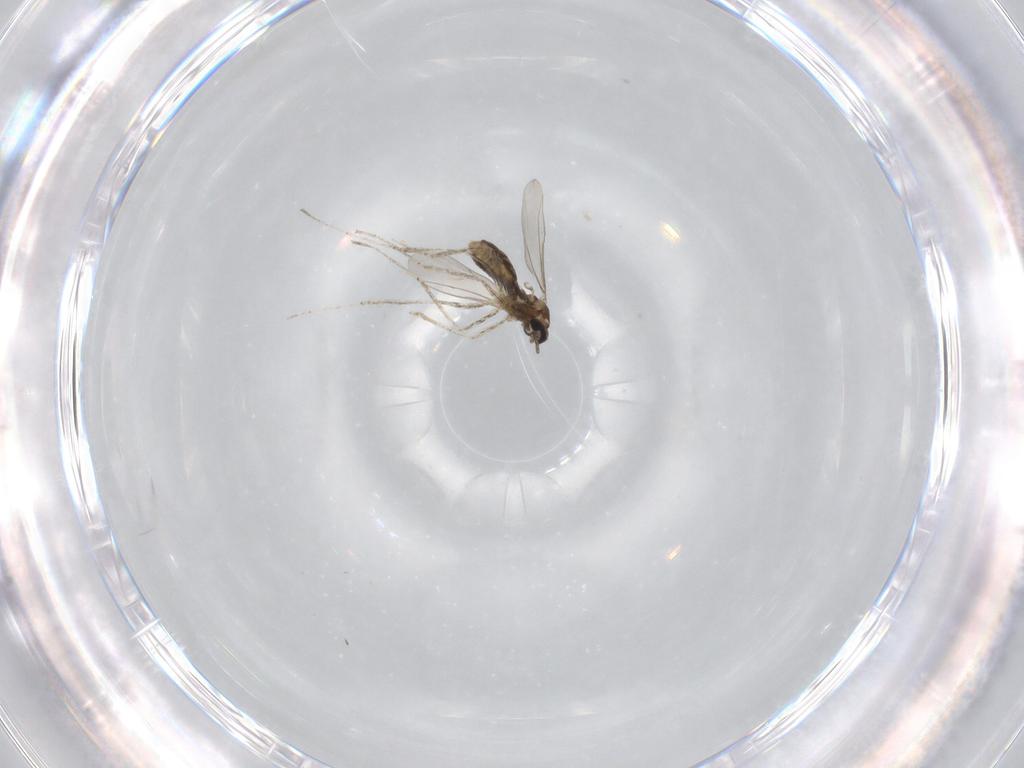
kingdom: Animalia
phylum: Arthropoda
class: Insecta
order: Diptera
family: Cecidomyiidae
